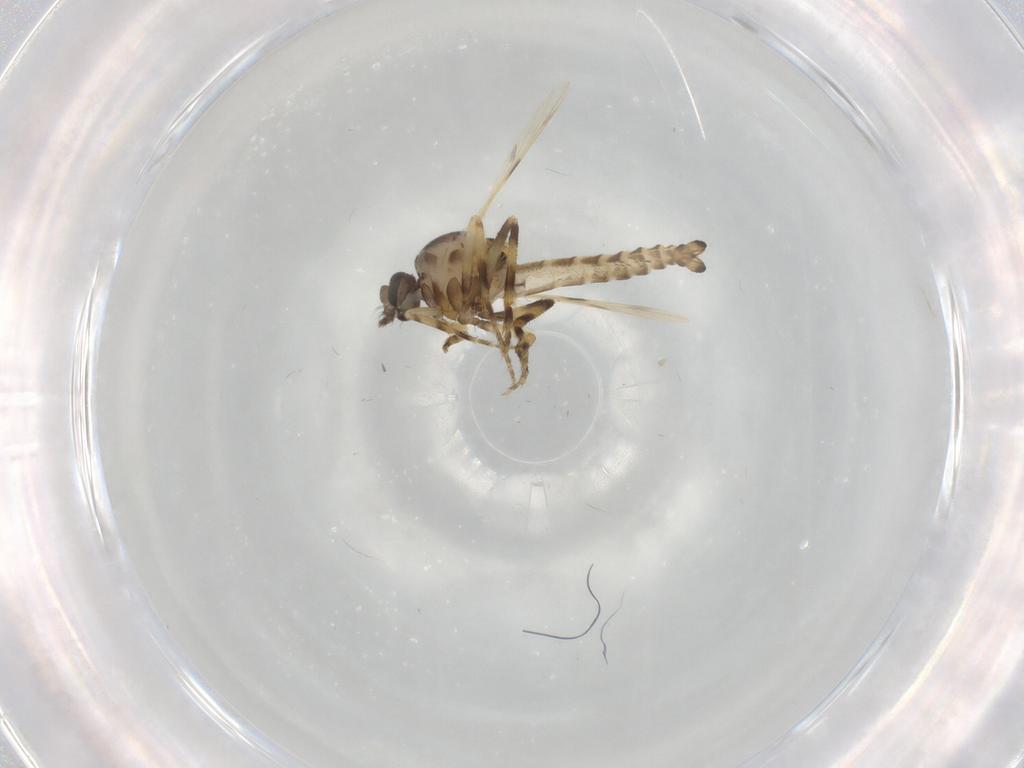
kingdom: Animalia
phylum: Arthropoda
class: Insecta
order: Diptera
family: Ceratopogonidae
